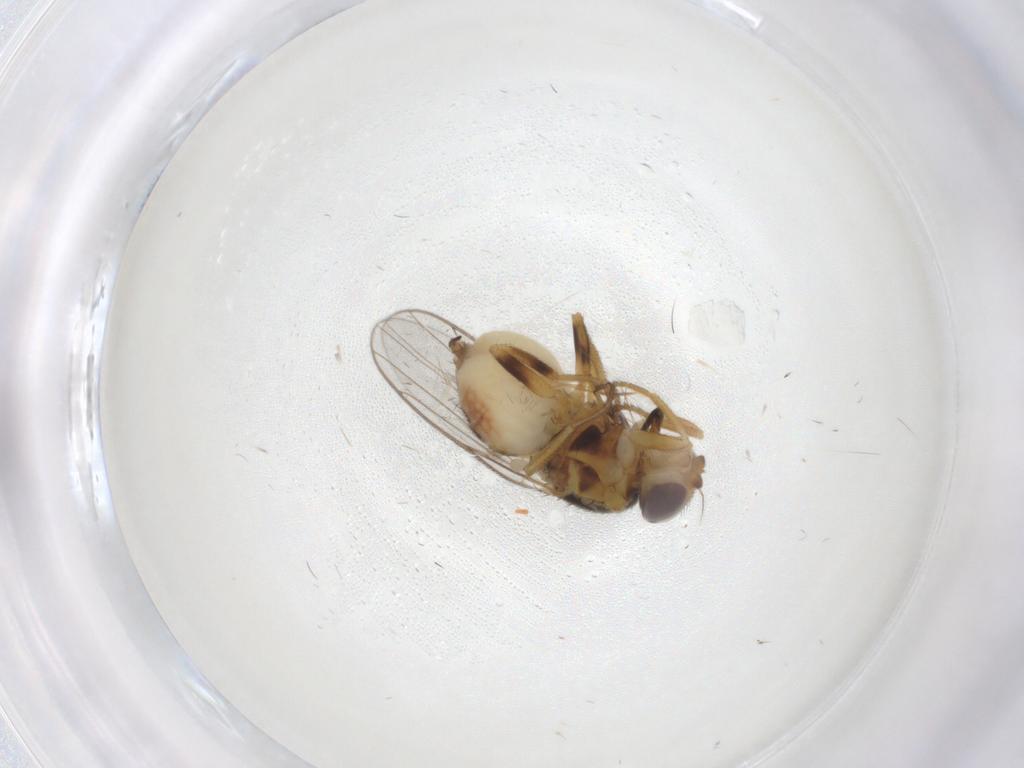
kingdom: Animalia
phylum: Arthropoda
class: Insecta
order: Diptera
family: Chloropidae
